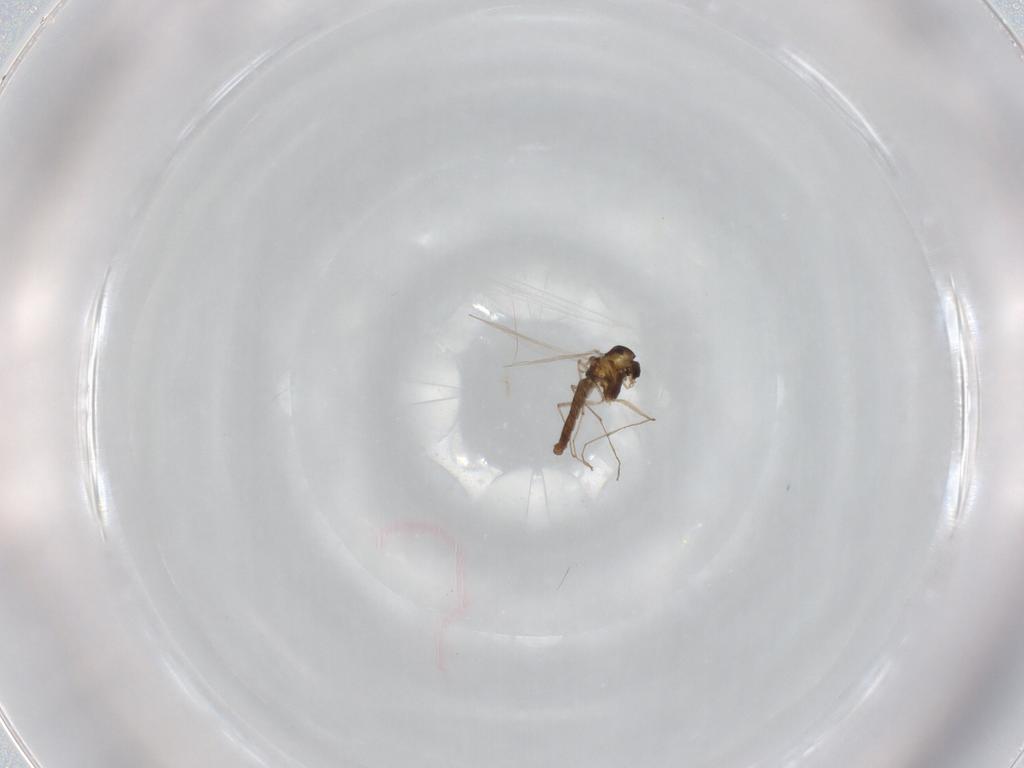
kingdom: Animalia
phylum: Arthropoda
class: Insecta
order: Diptera
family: Chironomidae
